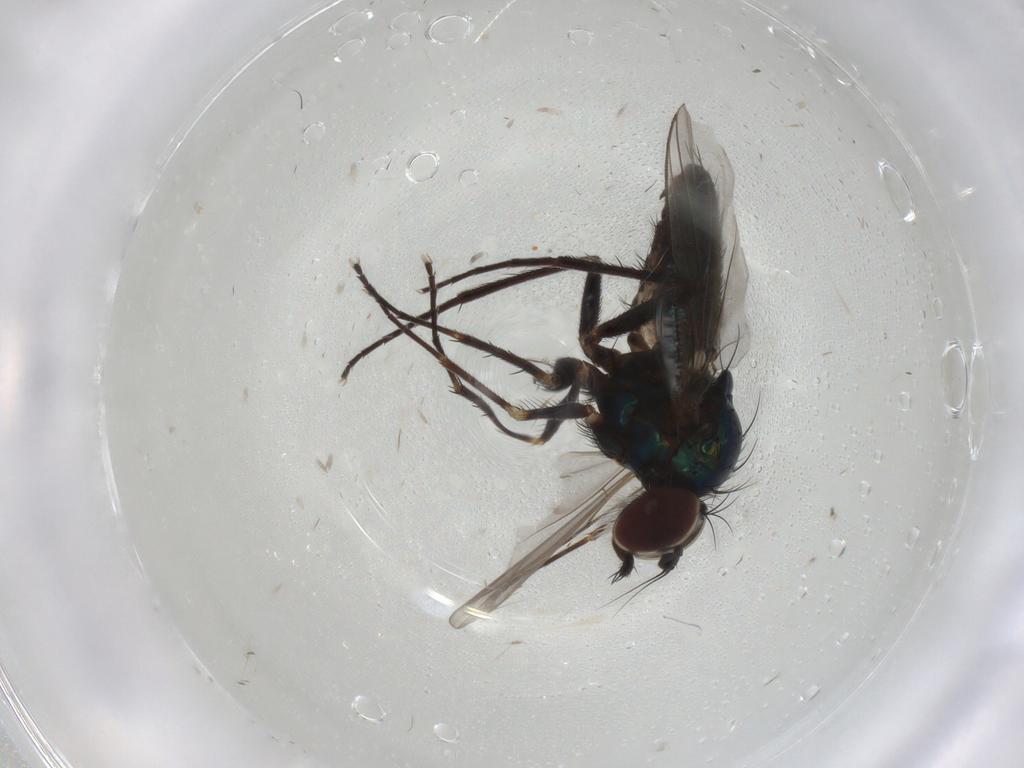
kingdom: Animalia
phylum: Arthropoda
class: Insecta
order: Diptera
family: Dolichopodidae
